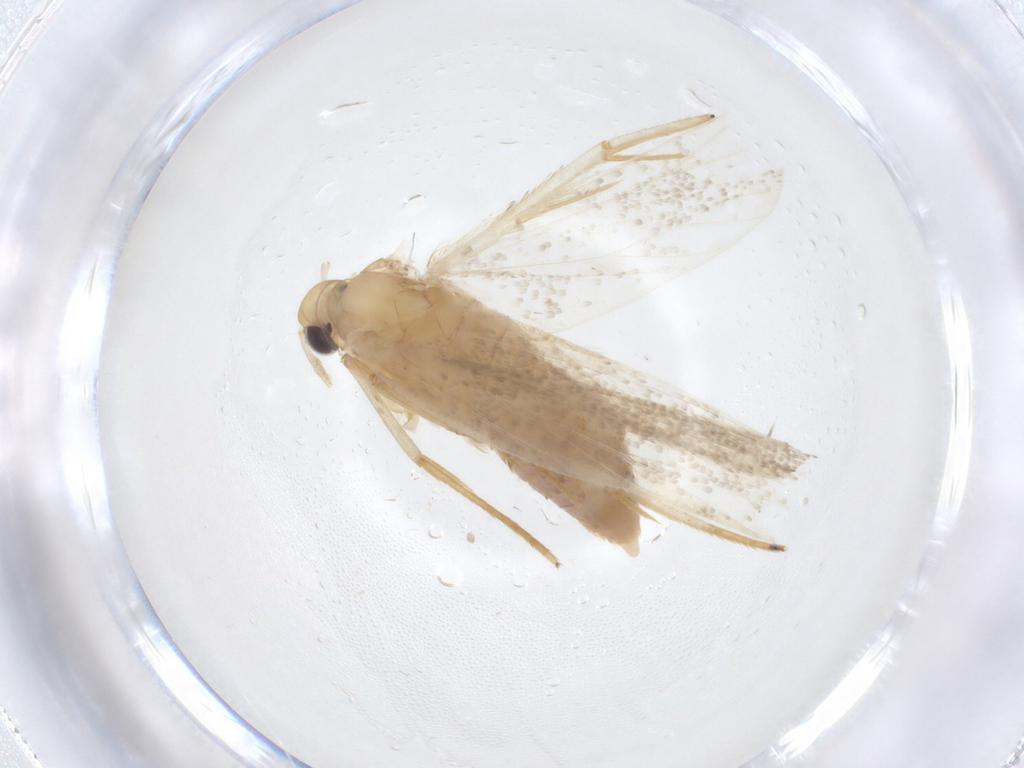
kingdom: Animalia
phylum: Arthropoda
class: Insecta
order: Lepidoptera
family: Lecithoceridae
